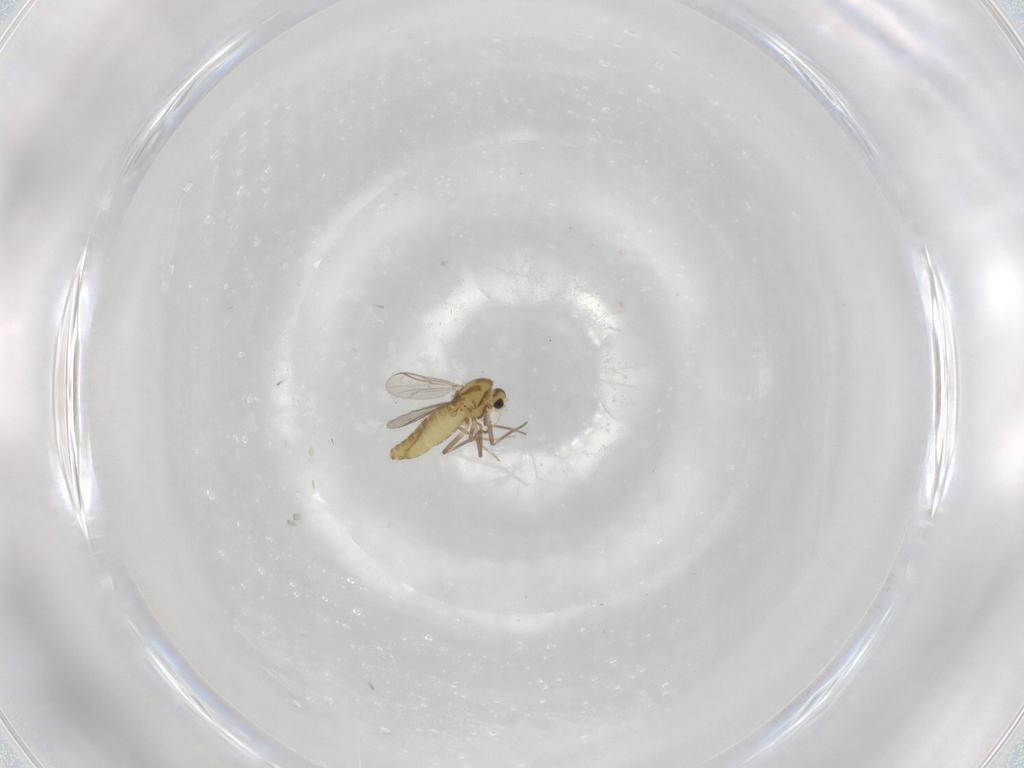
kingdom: Animalia
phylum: Arthropoda
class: Insecta
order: Diptera
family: Chironomidae
